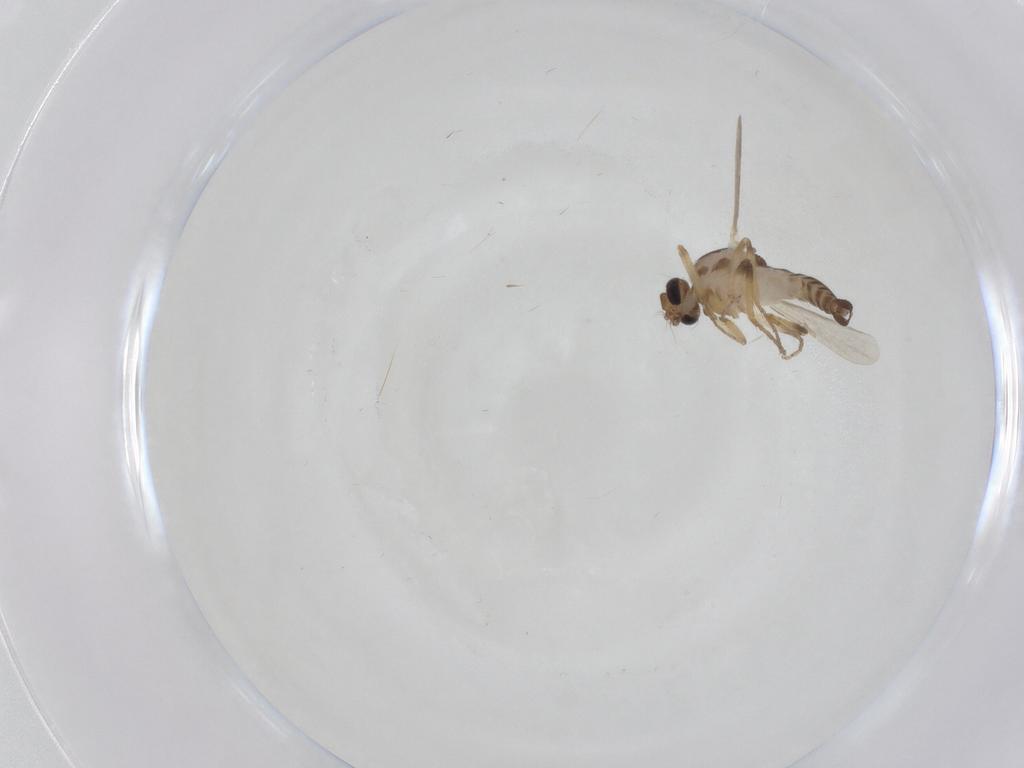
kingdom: Animalia
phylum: Arthropoda
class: Insecta
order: Diptera
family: Ceratopogonidae
